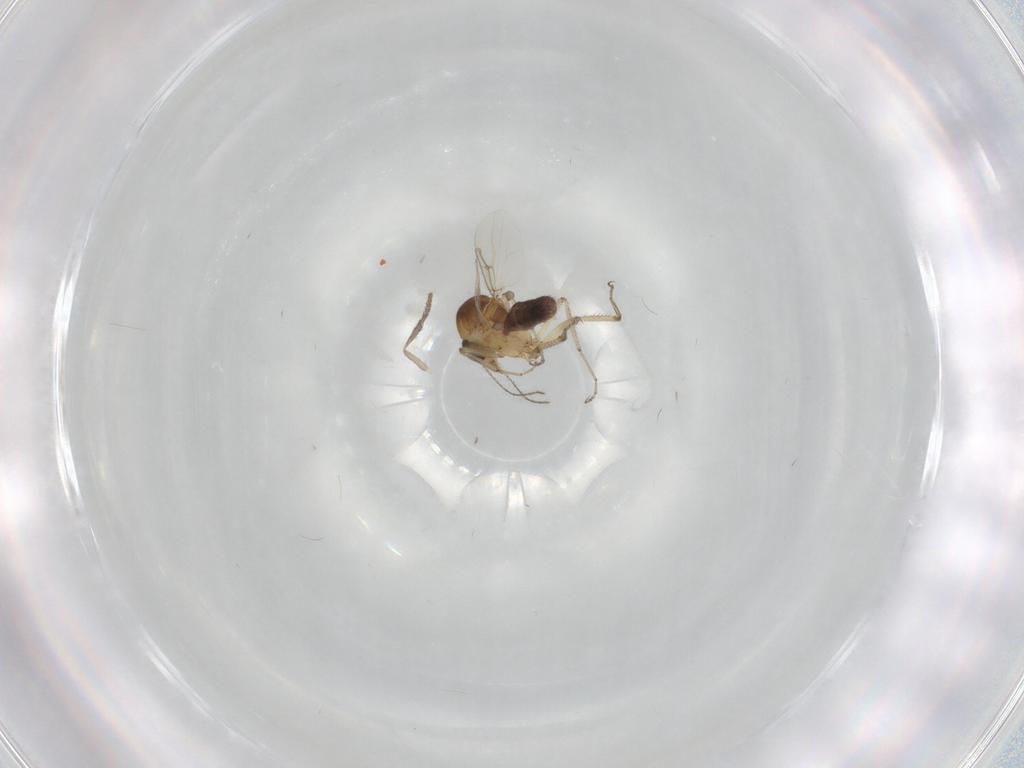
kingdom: Animalia
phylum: Arthropoda
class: Insecta
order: Diptera
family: Ceratopogonidae
